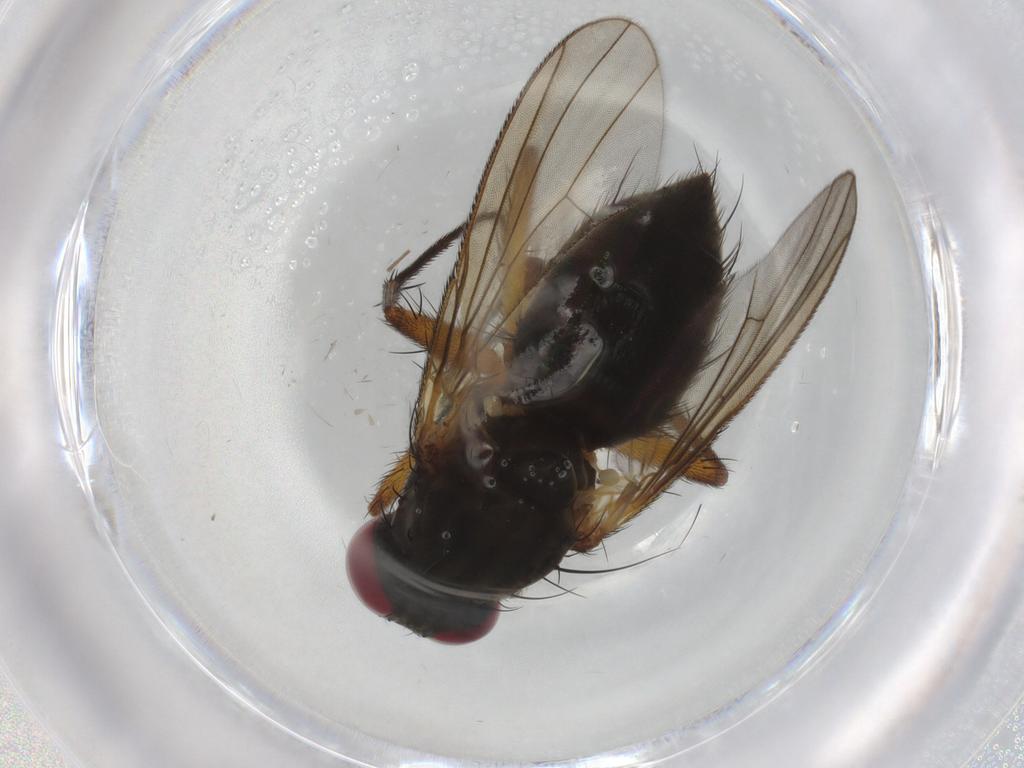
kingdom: Animalia
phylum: Arthropoda
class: Insecta
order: Diptera
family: Muscidae
